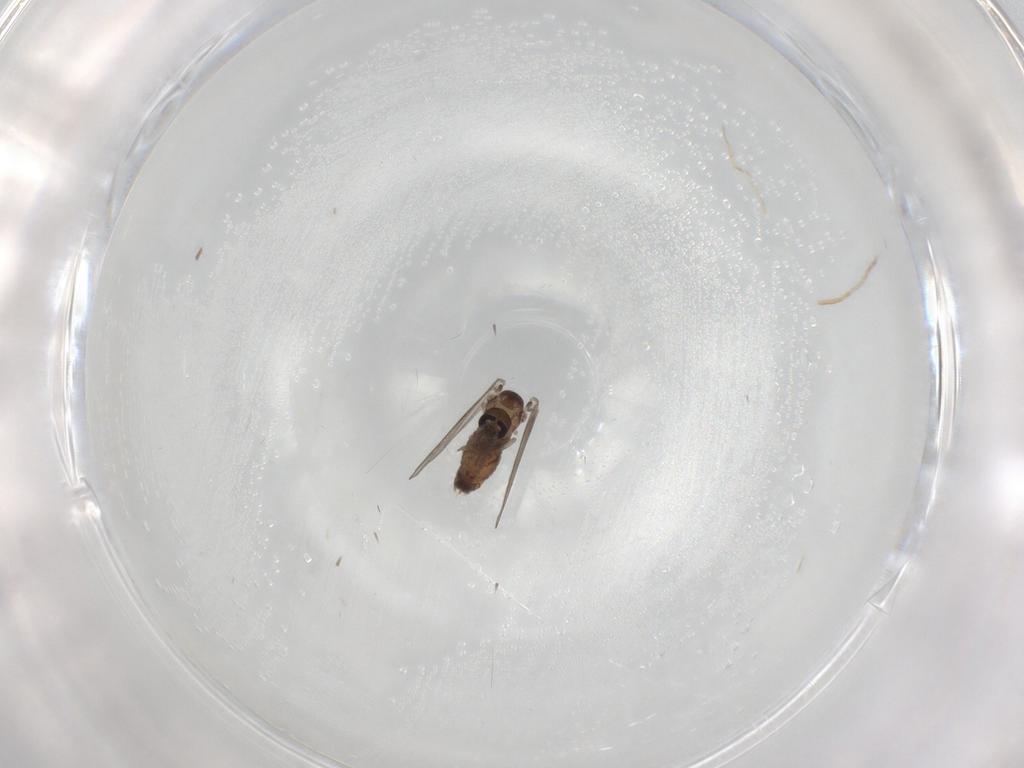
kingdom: Animalia
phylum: Arthropoda
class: Insecta
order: Diptera
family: Psychodidae
